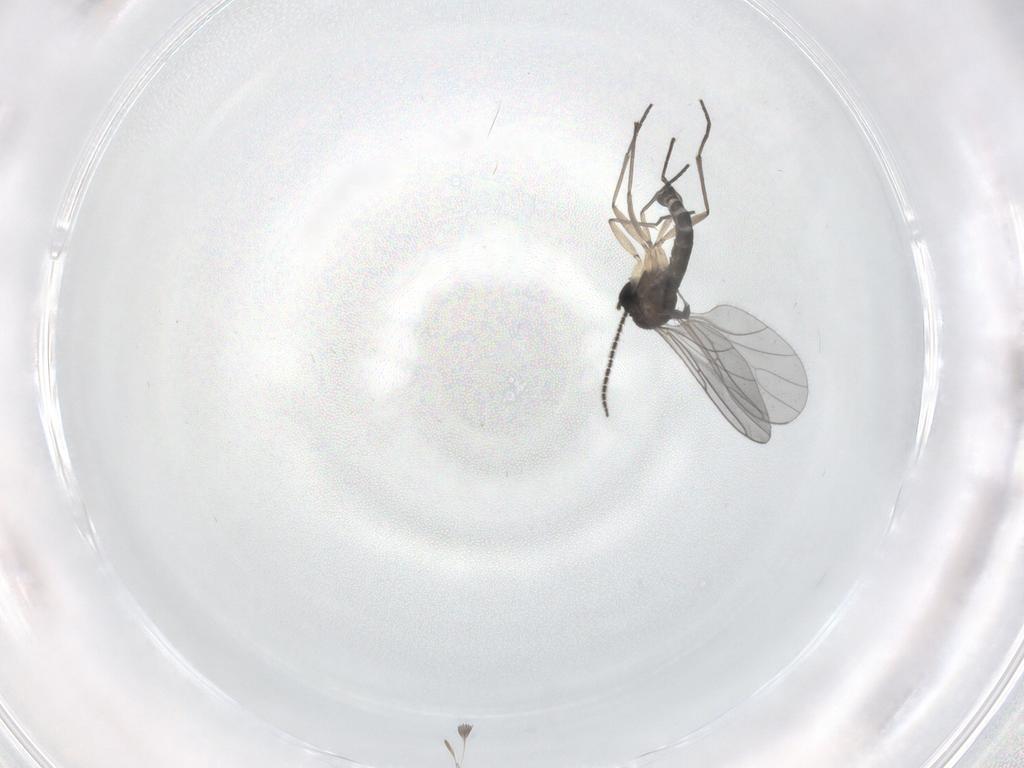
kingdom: Animalia
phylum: Arthropoda
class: Insecta
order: Diptera
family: Sciaridae
